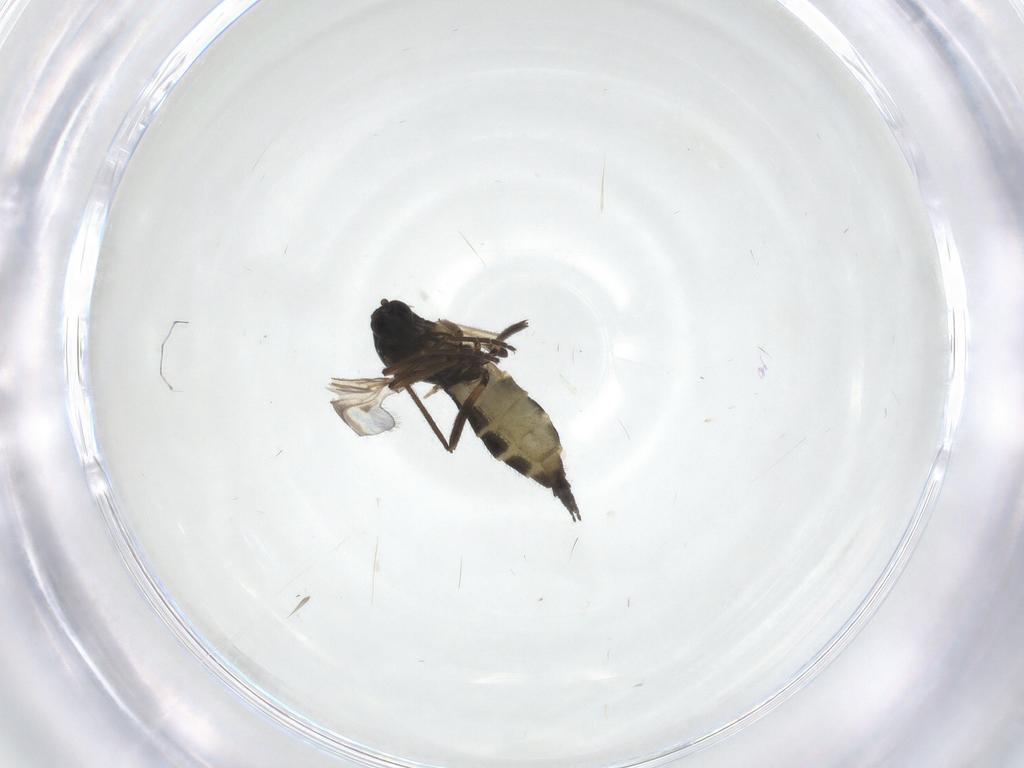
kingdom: Animalia
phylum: Arthropoda
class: Insecta
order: Diptera
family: Sciaridae
